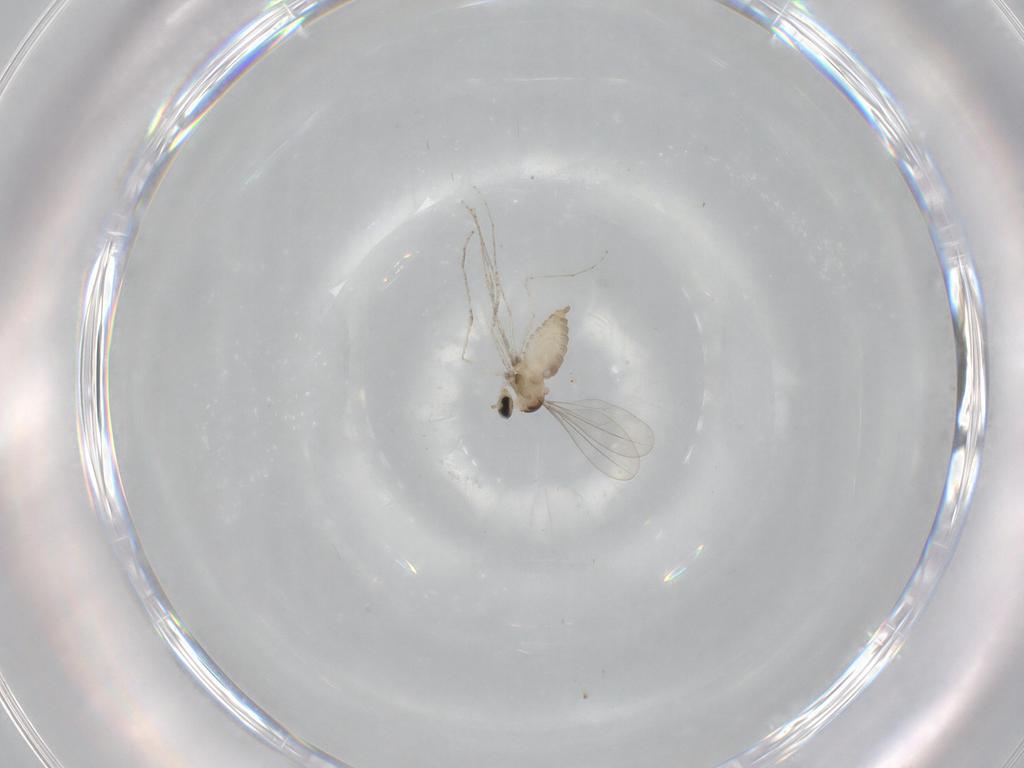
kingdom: Animalia
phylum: Arthropoda
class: Insecta
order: Diptera
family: Cecidomyiidae
